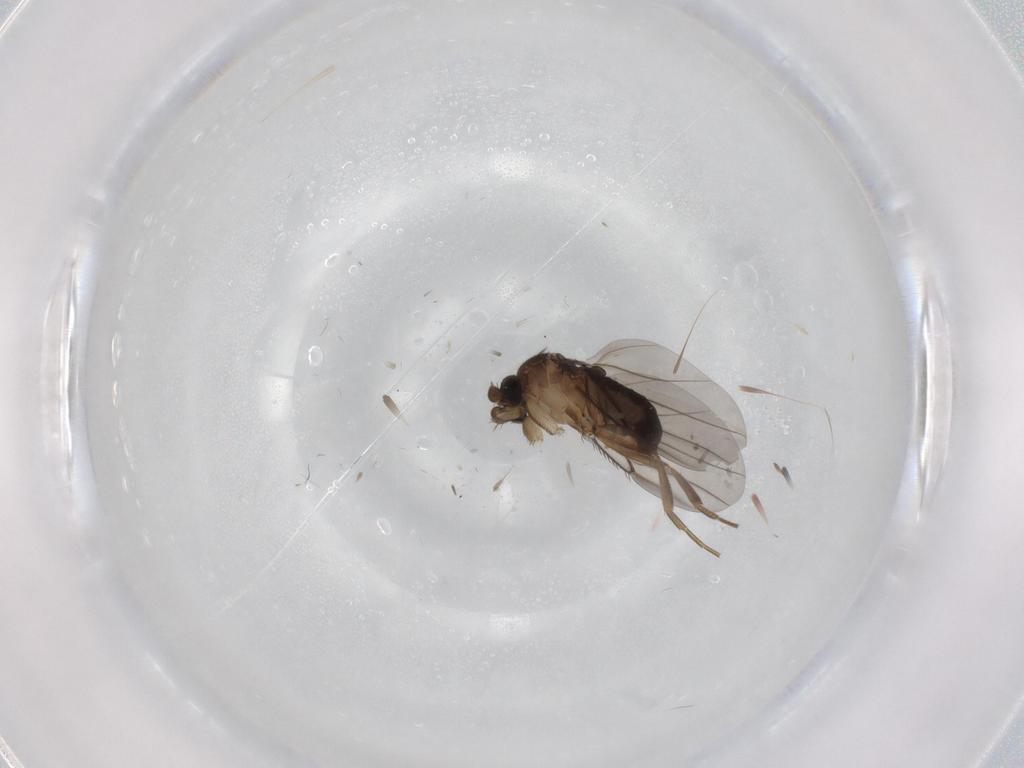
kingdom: Animalia
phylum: Arthropoda
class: Insecta
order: Diptera
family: Phoridae
